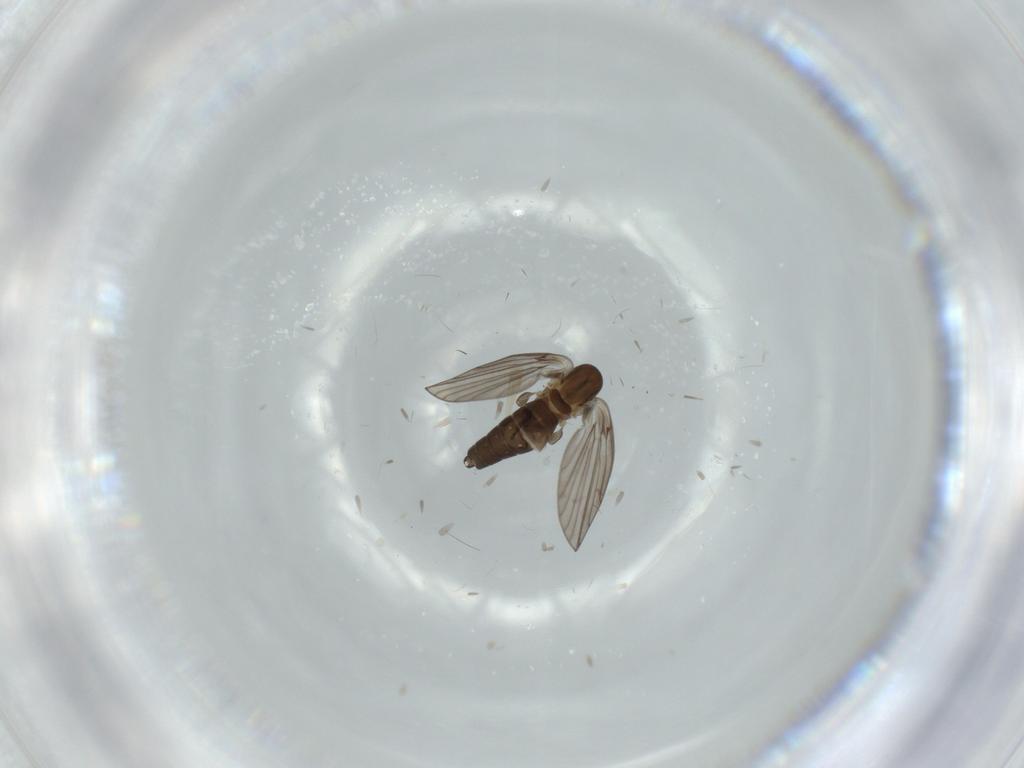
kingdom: Animalia
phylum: Arthropoda
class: Insecta
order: Diptera
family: Psychodidae
